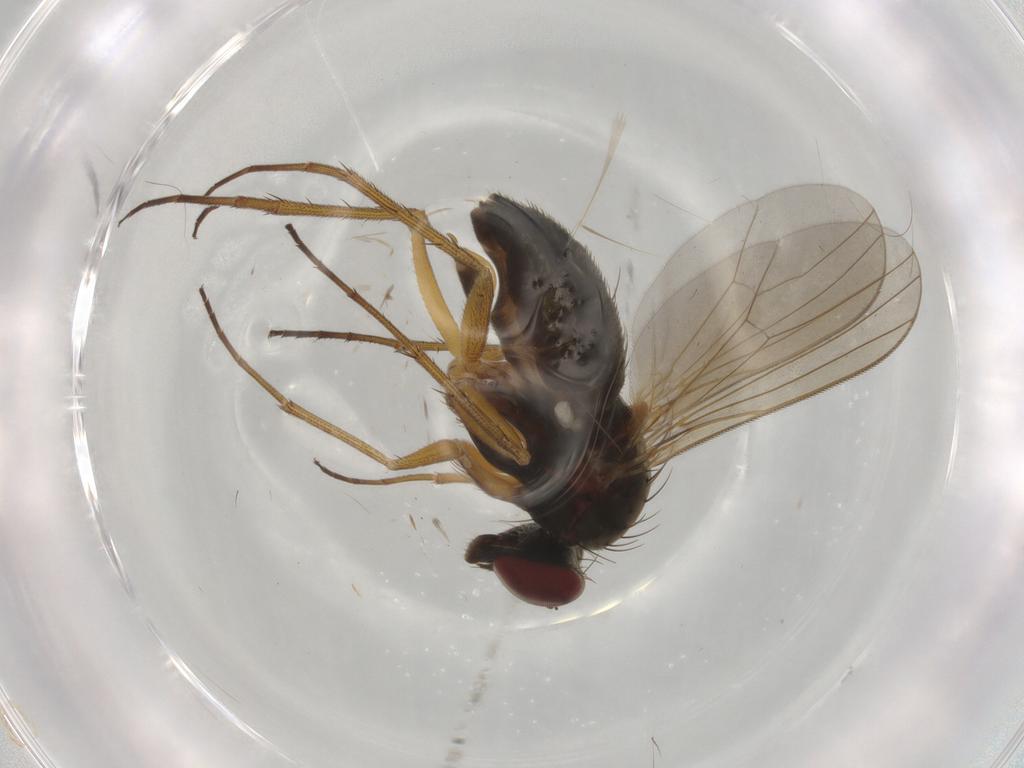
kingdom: Animalia
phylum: Arthropoda
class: Insecta
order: Diptera
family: Dolichopodidae
